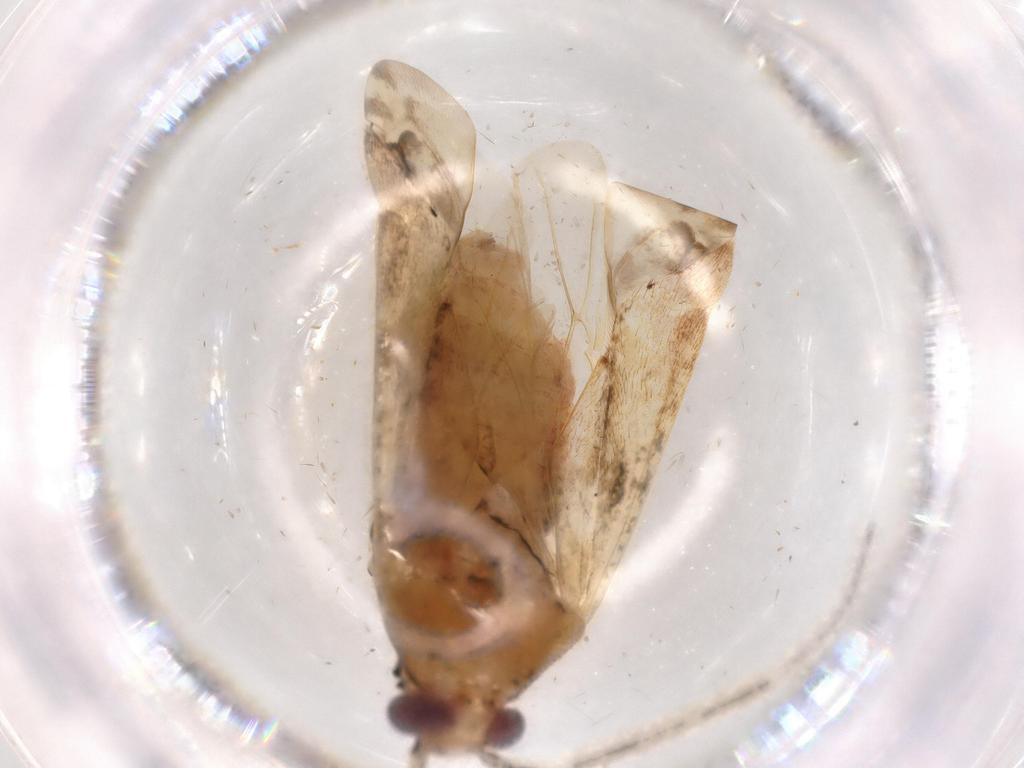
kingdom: Animalia
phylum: Arthropoda
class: Insecta
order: Hemiptera
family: Miridae
